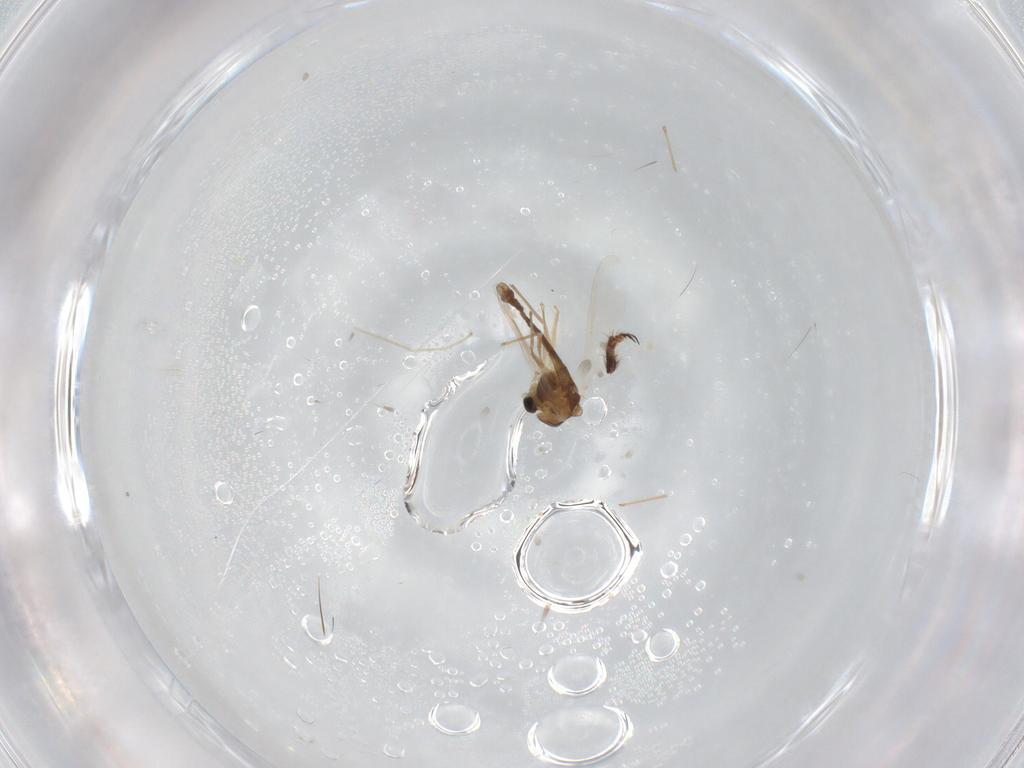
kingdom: Animalia
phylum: Arthropoda
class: Insecta
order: Diptera
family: Chironomidae
